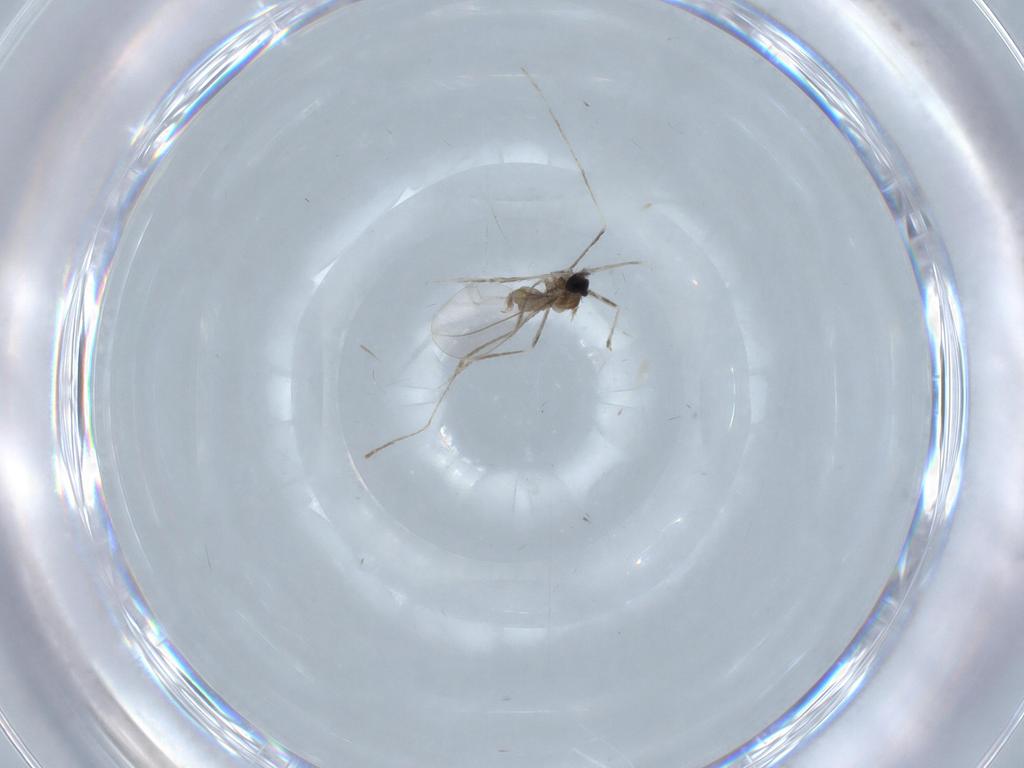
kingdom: Animalia
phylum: Arthropoda
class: Insecta
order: Diptera
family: Cecidomyiidae
